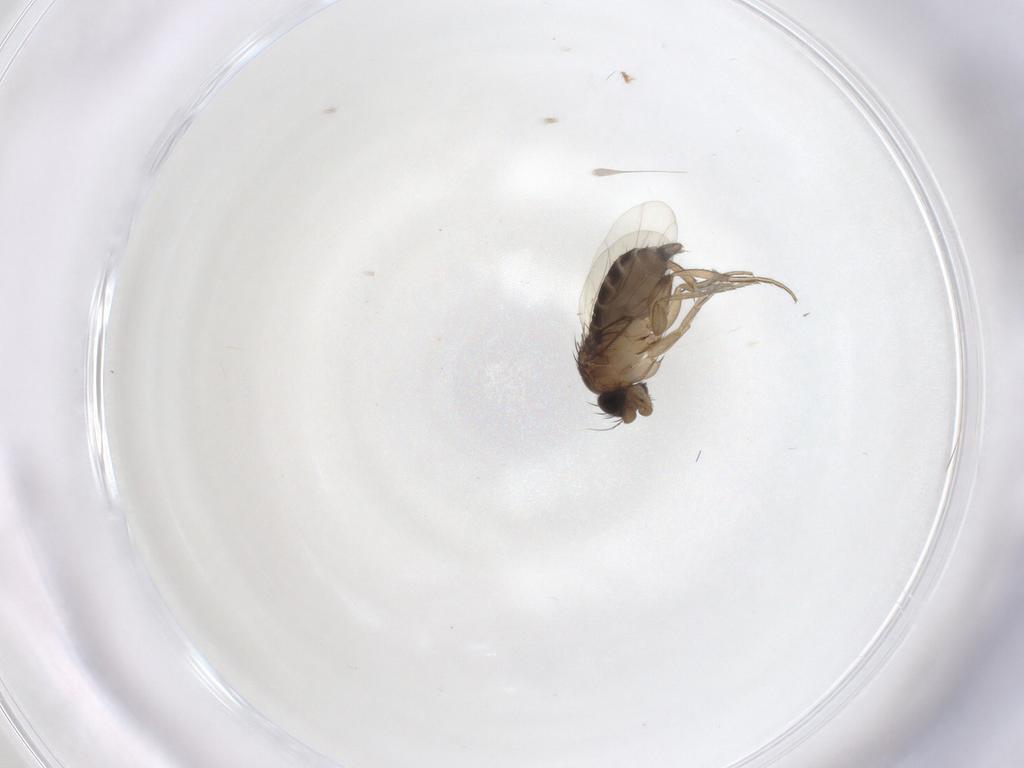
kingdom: Animalia
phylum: Arthropoda
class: Insecta
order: Diptera
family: Phoridae
